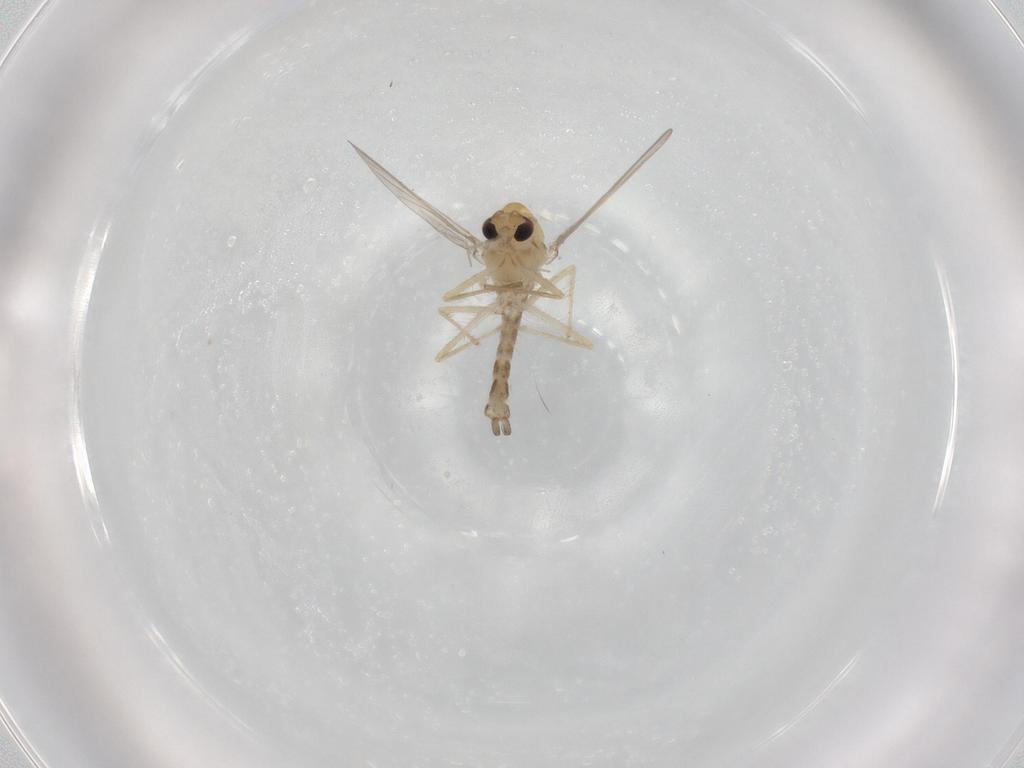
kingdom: Animalia
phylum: Arthropoda
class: Insecta
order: Diptera
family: Chironomidae
